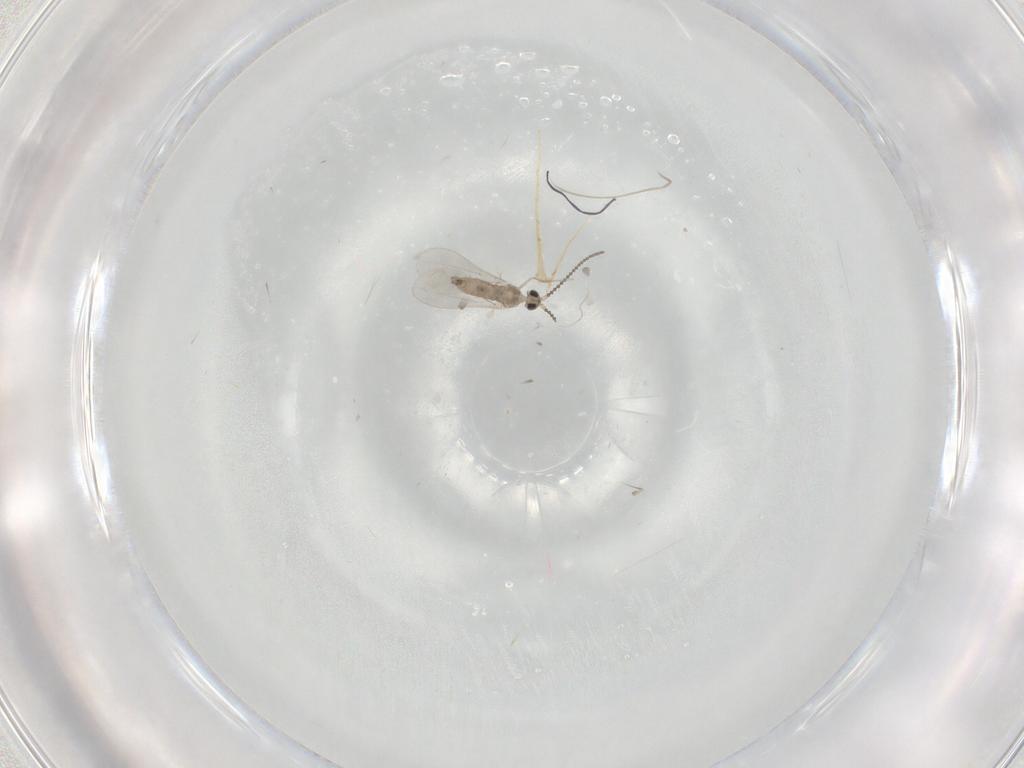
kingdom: Animalia
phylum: Arthropoda
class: Insecta
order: Diptera
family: Cecidomyiidae
